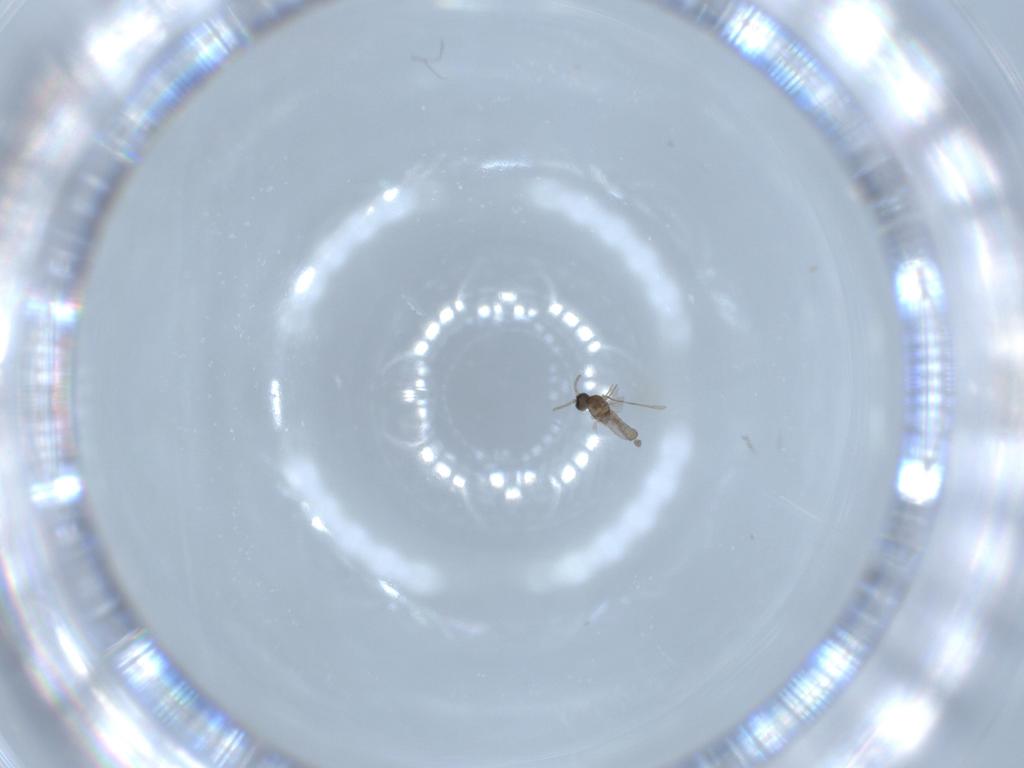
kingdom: Animalia
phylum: Arthropoda
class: Insecta
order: Diptera
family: Cecidomyiidae
